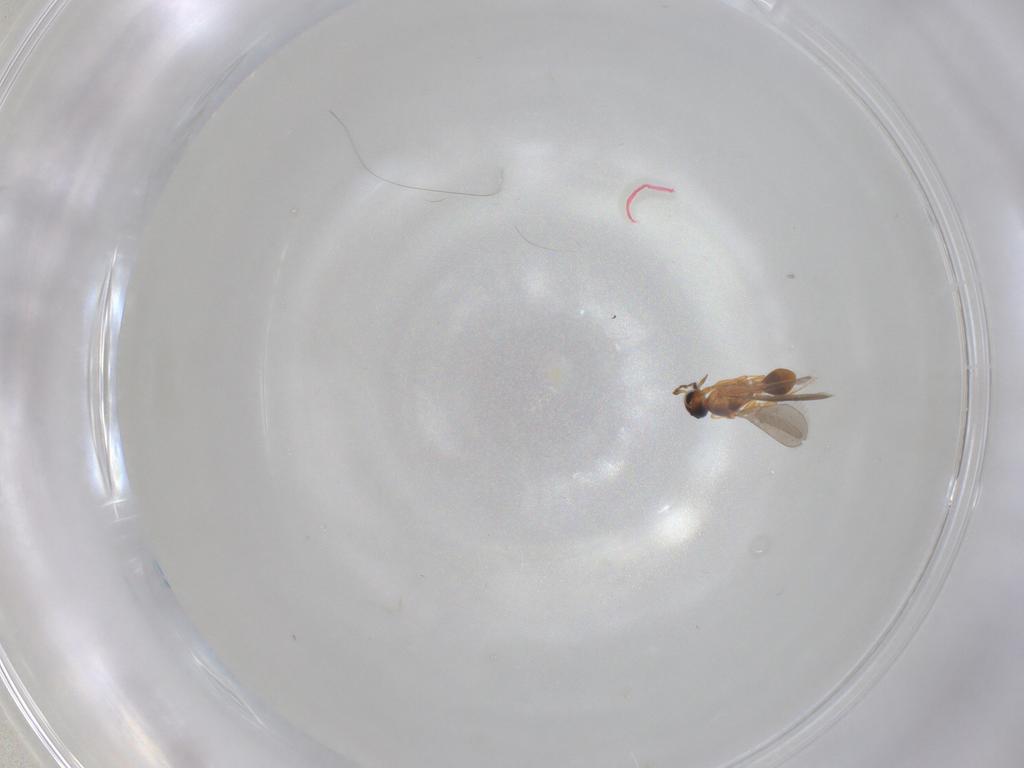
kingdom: Animalia
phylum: Arthropoda
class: Insecta
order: Hymenoptera
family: Platygastridae
